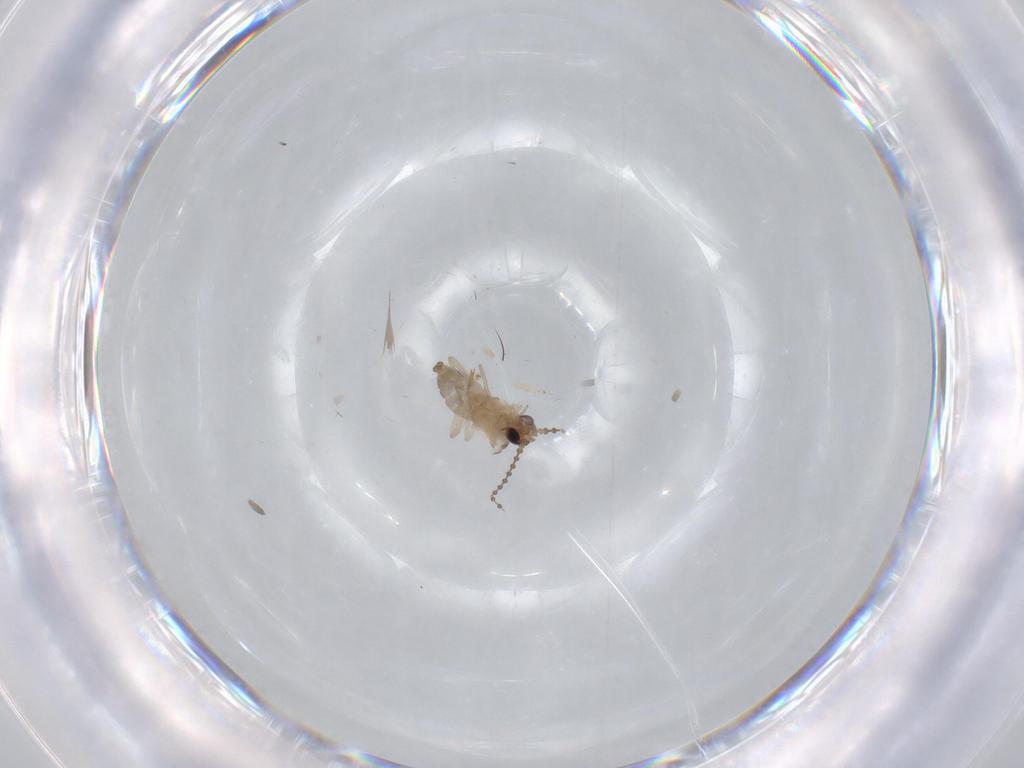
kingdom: Animalia
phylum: Arthropoda
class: Insecta
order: Diptera
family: Cecidomyiidae
